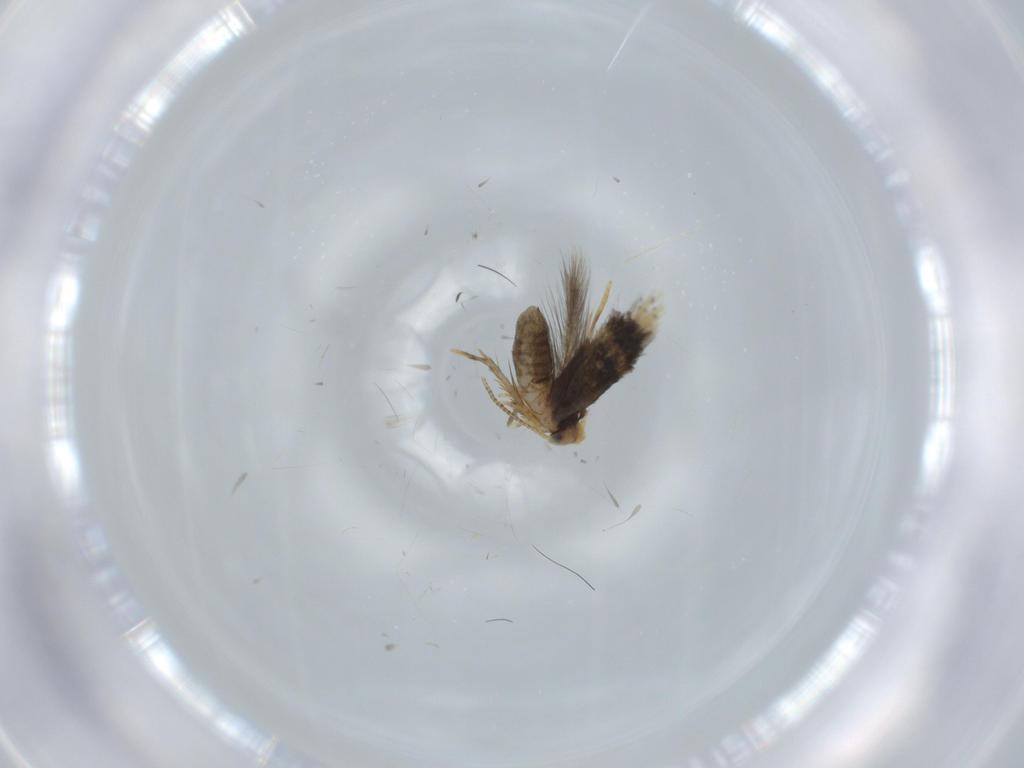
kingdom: Animalia
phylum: Arthropoda
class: Insecta
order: Lepidoptera
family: Nepticulidae
